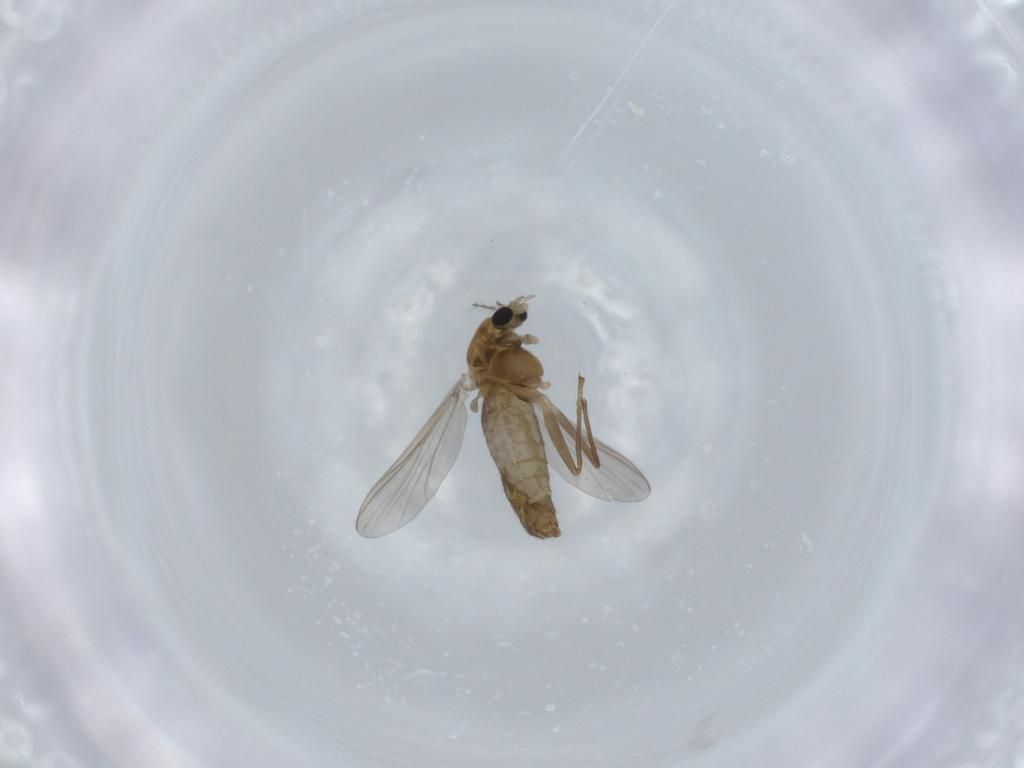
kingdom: Animalia
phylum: Arthropoda
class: Insecta
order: Diptera
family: Chironomidae
